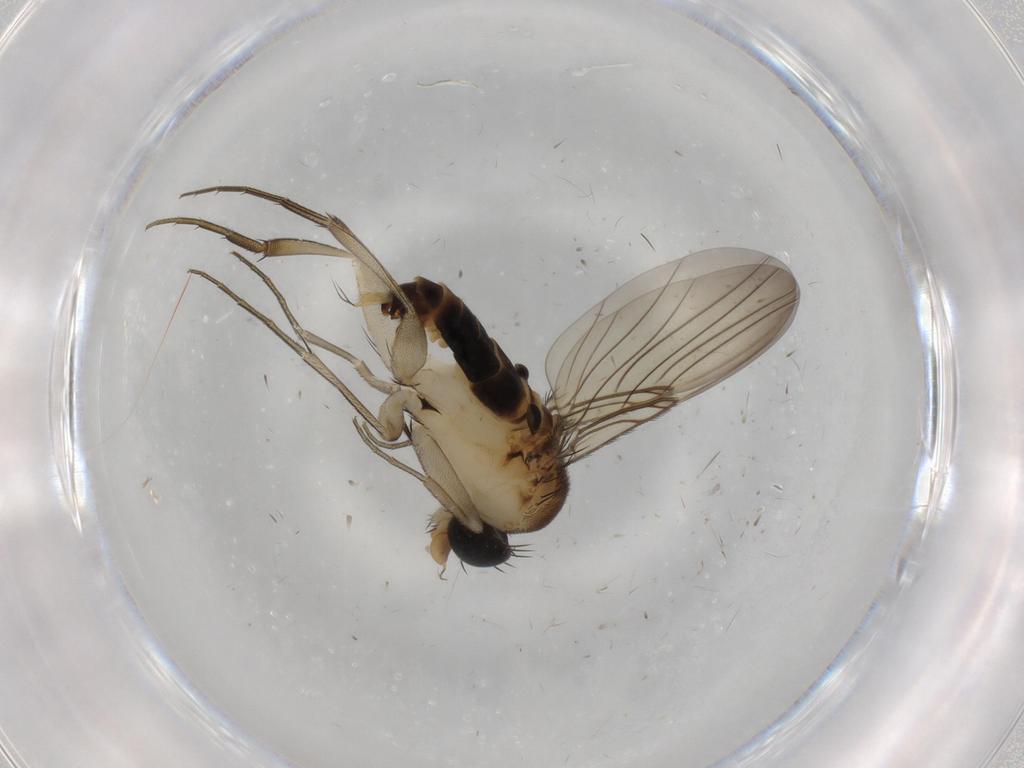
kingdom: Animalia
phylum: Arthropoda
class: Insecta
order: Diptera
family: Phoridae
